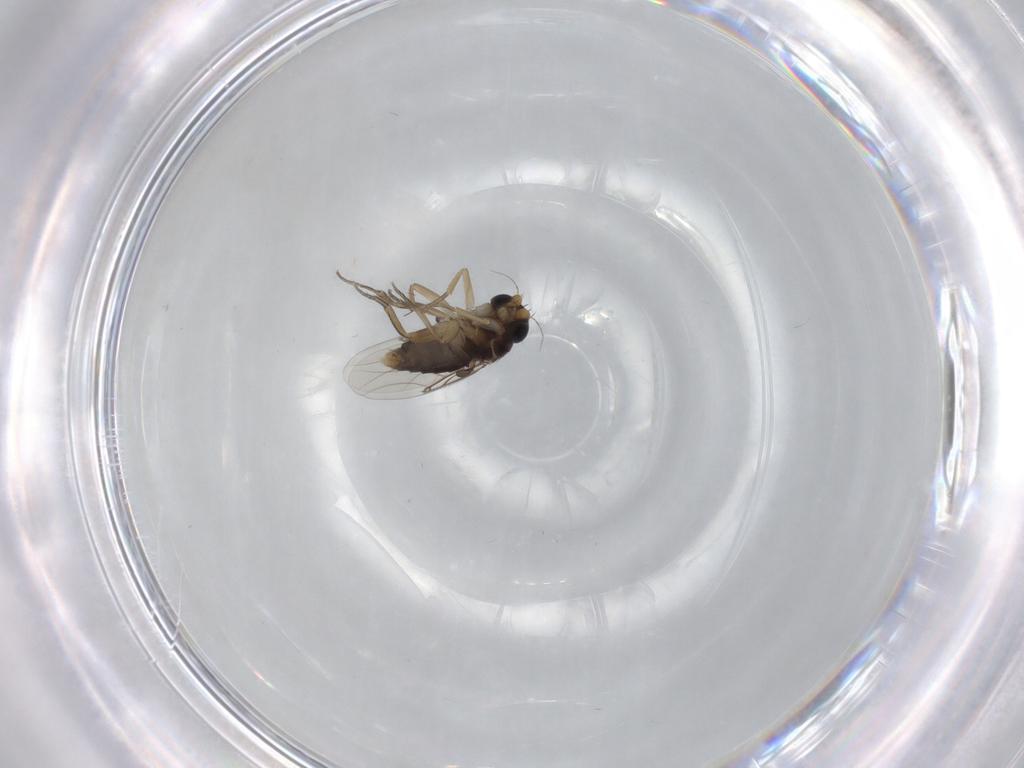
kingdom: Animalia
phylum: Arthropoda
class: Insecta
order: Diptera
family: Phoridae
